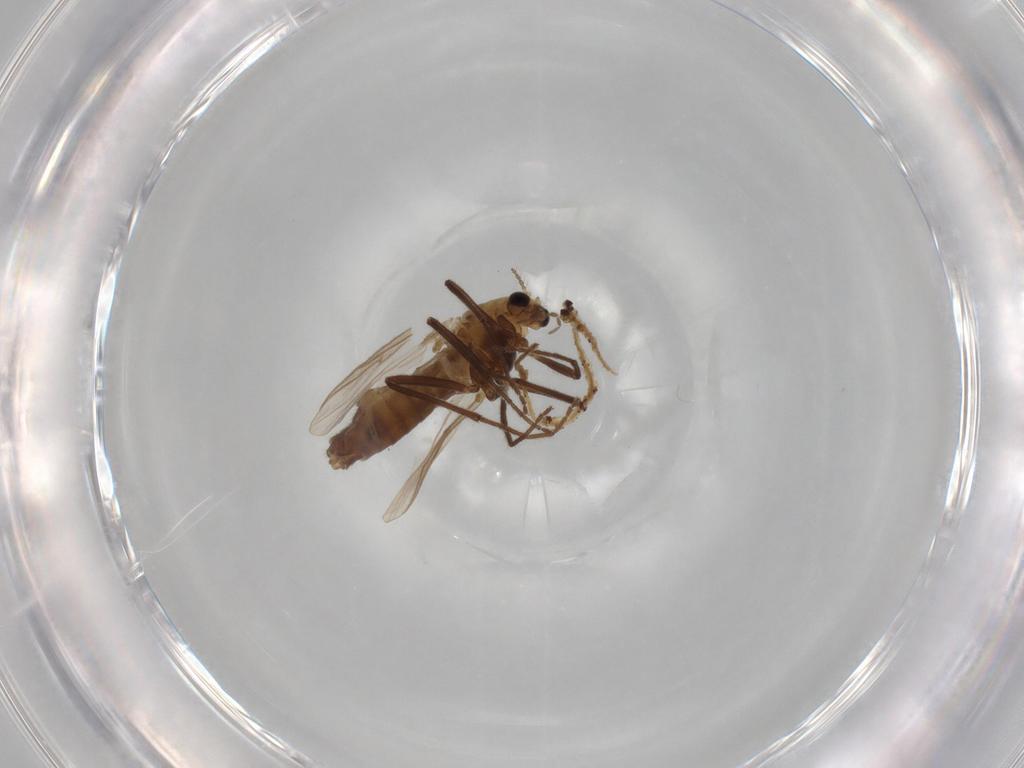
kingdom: Animalia
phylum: Arthropoda
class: Insecta
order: Diptera
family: Chironomidae
